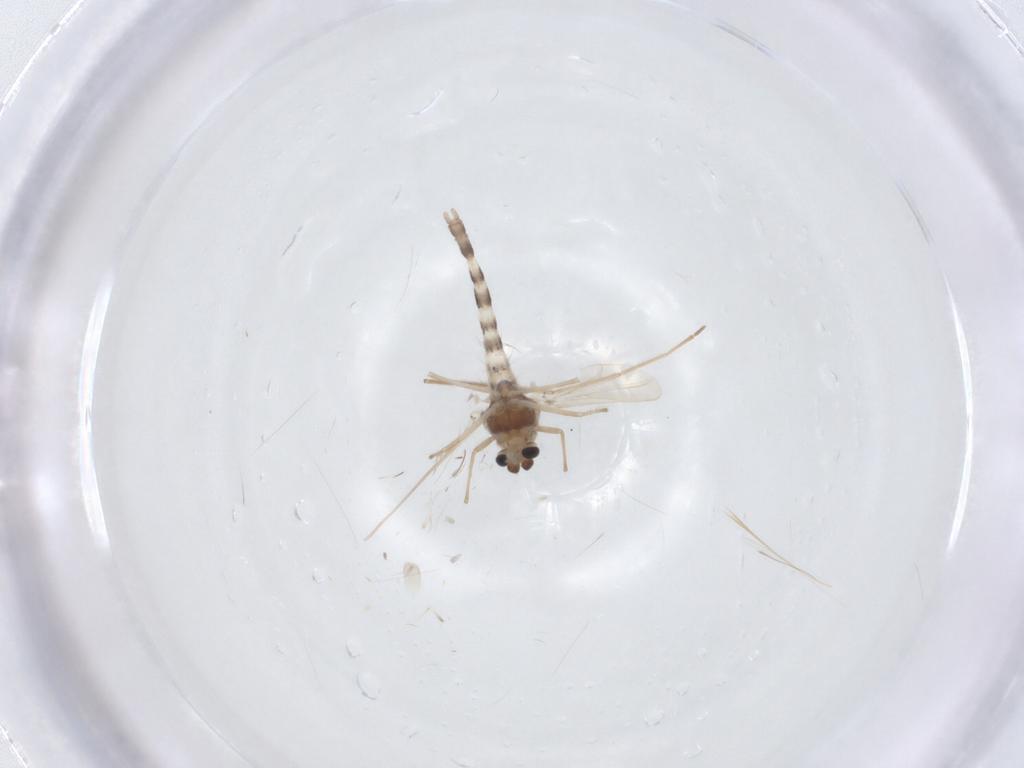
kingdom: Animalia
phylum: Arthropoda
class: Insecta
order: Diptera
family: Chironomidae
